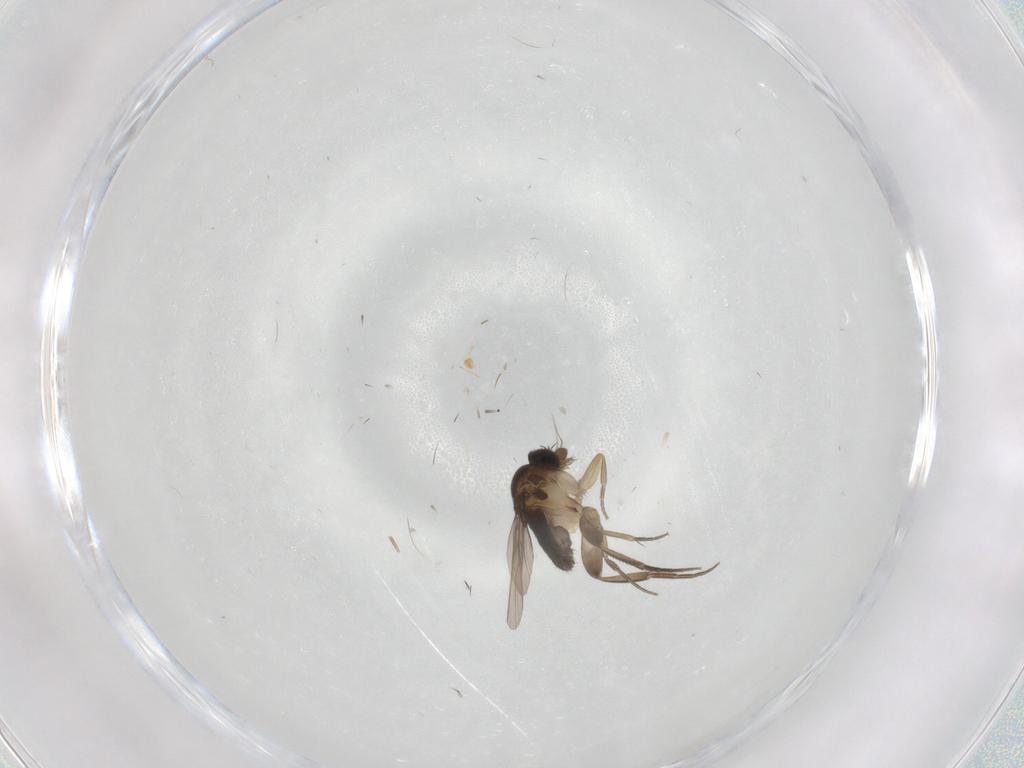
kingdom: Animalia
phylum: Arthropoda
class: Insecta
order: Diptera
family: Phoridae
